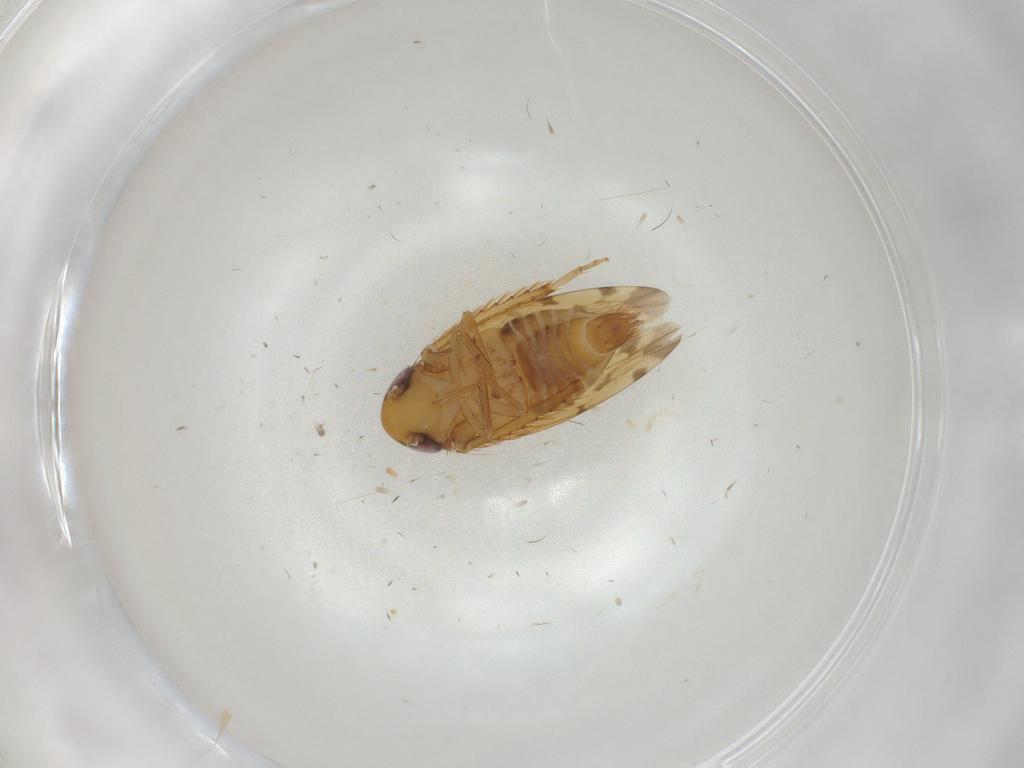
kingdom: Animalia
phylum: Arthropoda
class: Insecta
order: Hemiptera
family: Cicadellidae
